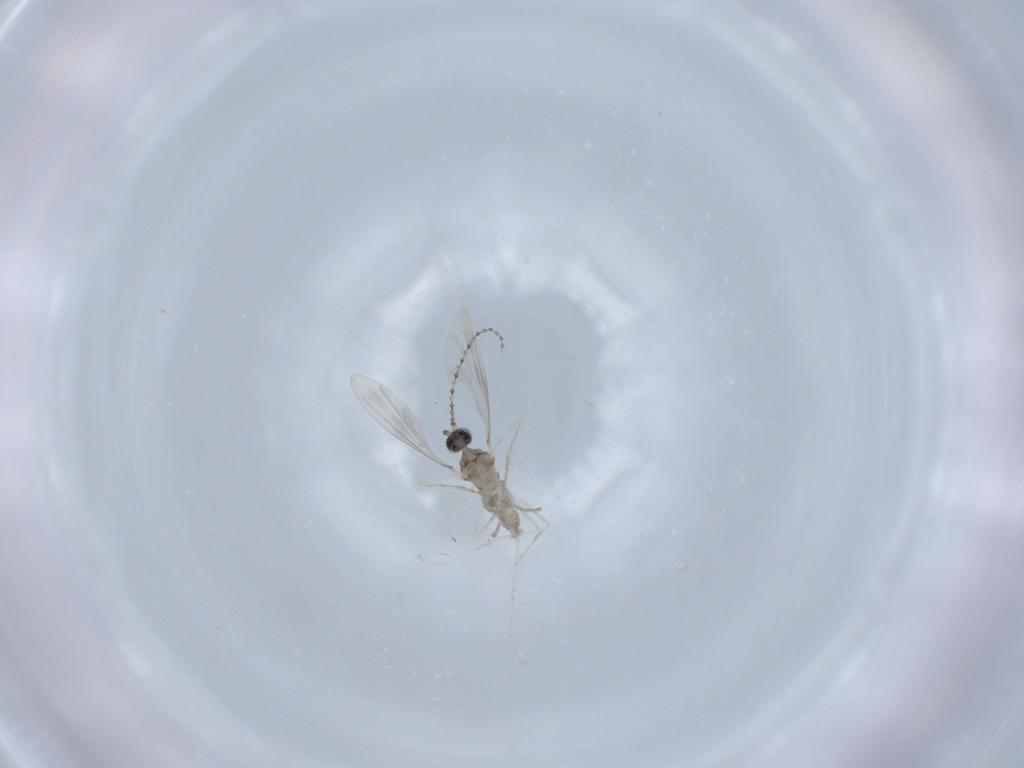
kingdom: Animalia
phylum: Arthropoda
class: Insecta
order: Diptera
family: Cecidomyiidae
